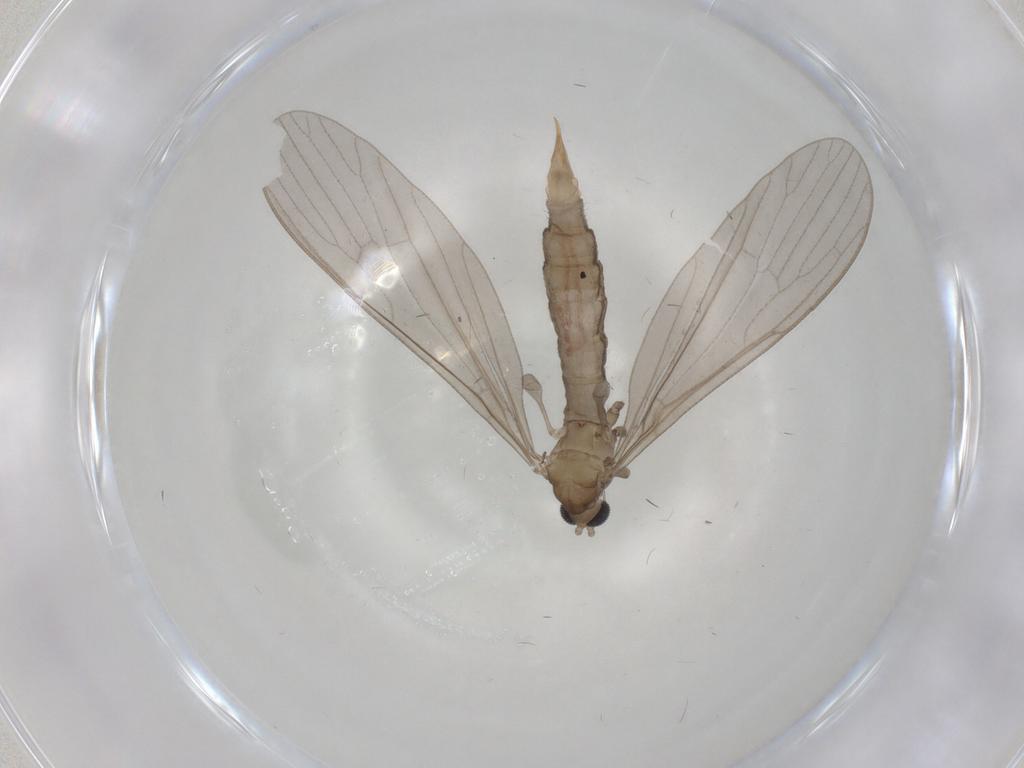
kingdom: Animalia
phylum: Arthropoda
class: Insecta
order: Diptera
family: Limoniidae
